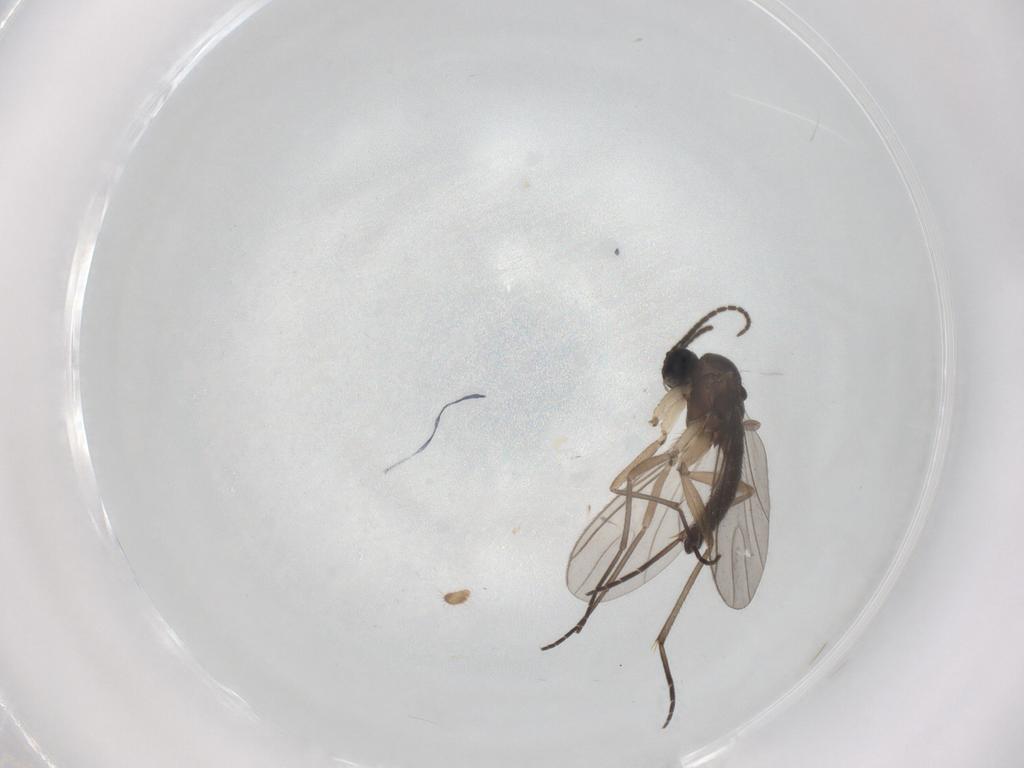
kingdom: Animalia
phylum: Arthropoda
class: Insecta
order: Diptera
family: Sciaridae
